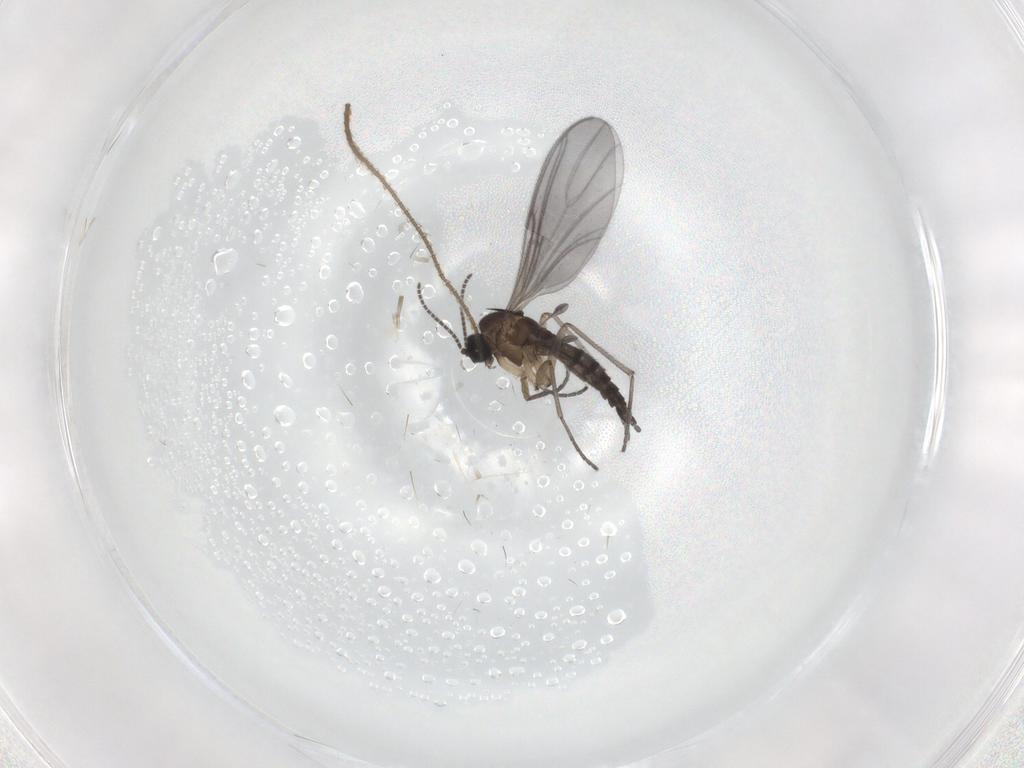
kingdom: Animalia
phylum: Arthropoda
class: Insecta
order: Diptera
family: Sciaridae
